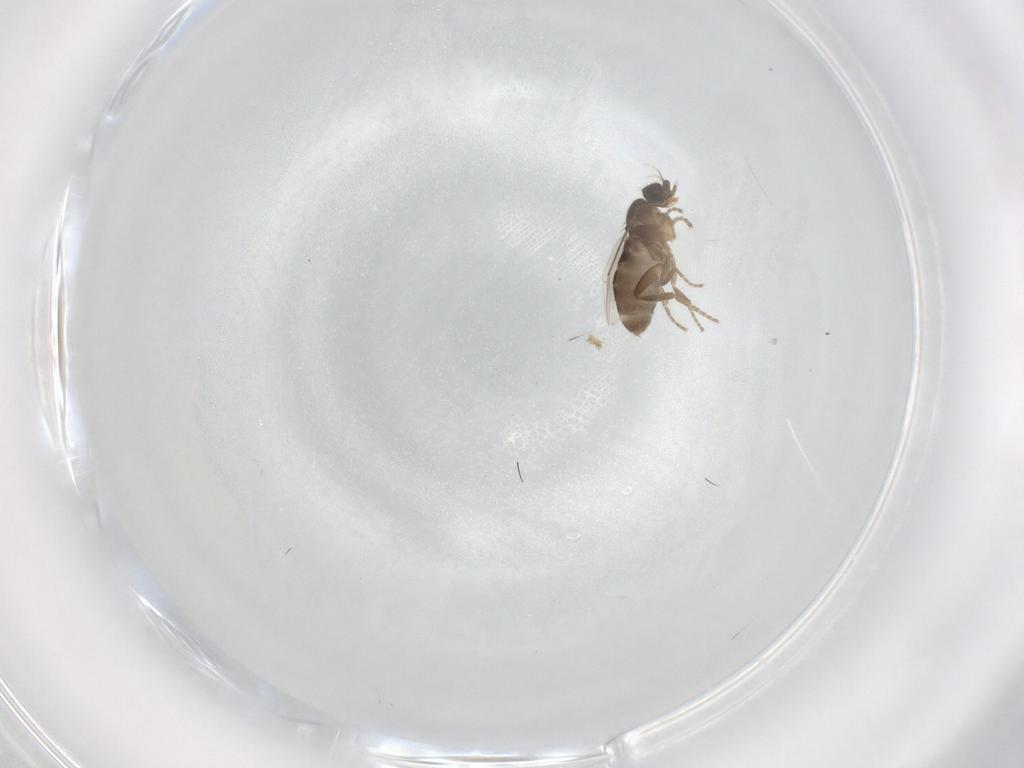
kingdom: Animalia
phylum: Arthropoda
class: Insecta
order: Diptera
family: Phoridae
